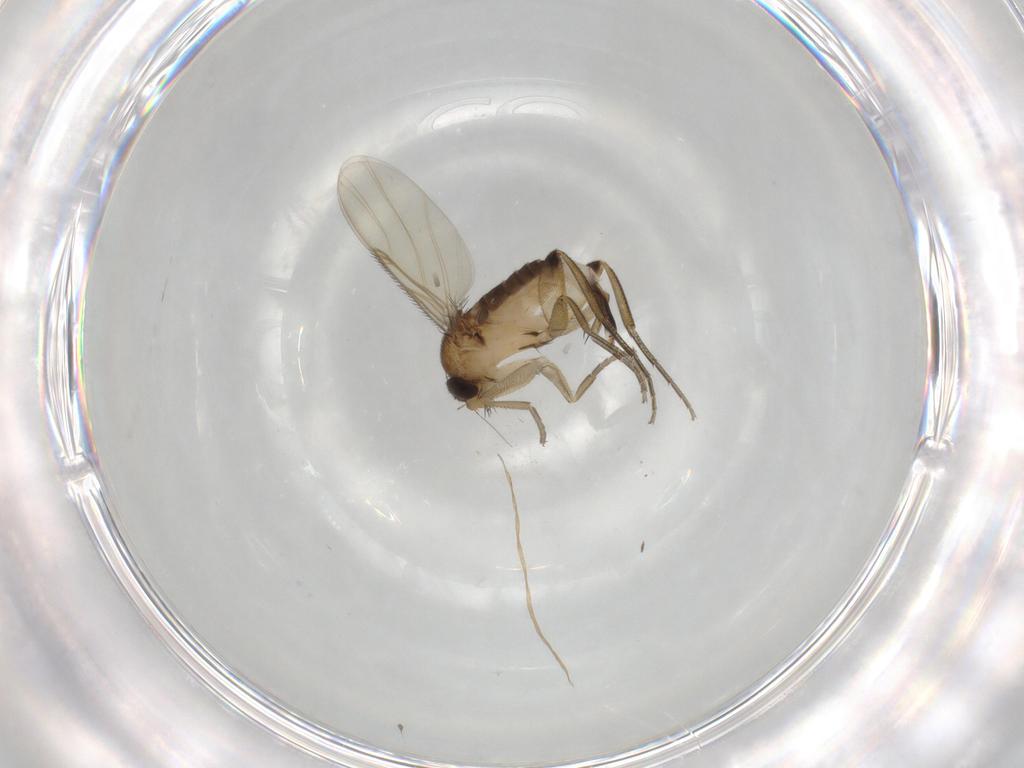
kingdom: Animalia
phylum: Arthropoda
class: Insecta
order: Diptera
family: Phoridae
